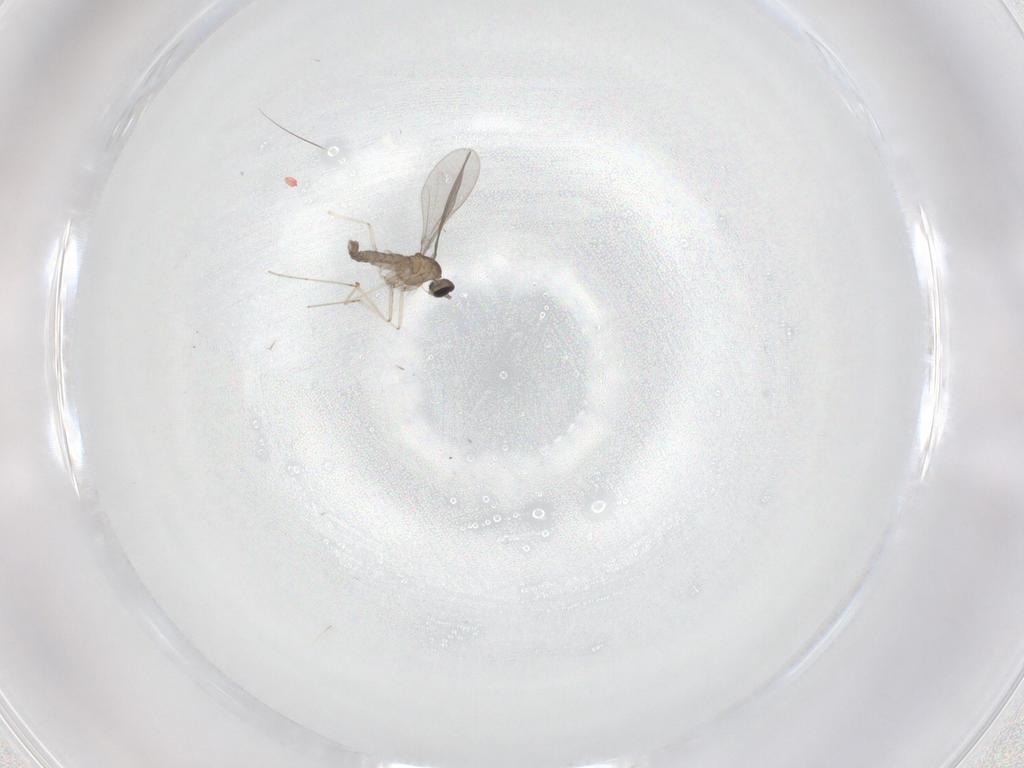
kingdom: Animalia
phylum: Arthropoda
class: Insecta
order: Diptera
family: Cecidomyiidae
